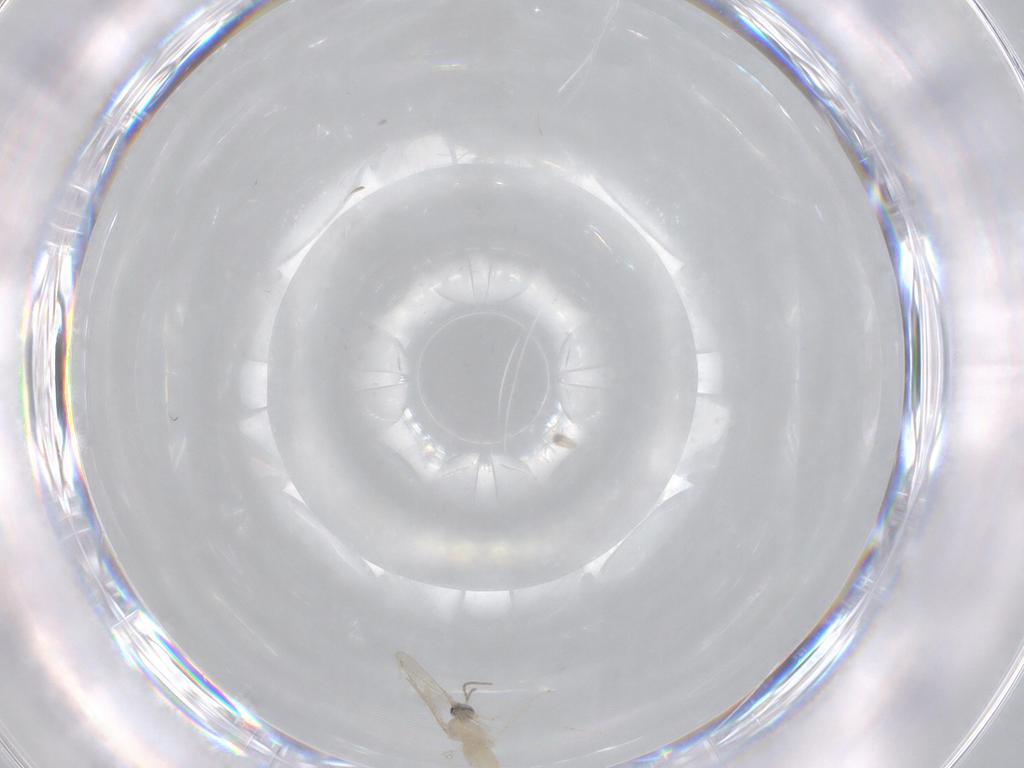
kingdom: Animalia
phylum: Arthropoda
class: Insecta
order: Diptera
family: Cecidomyiidae
